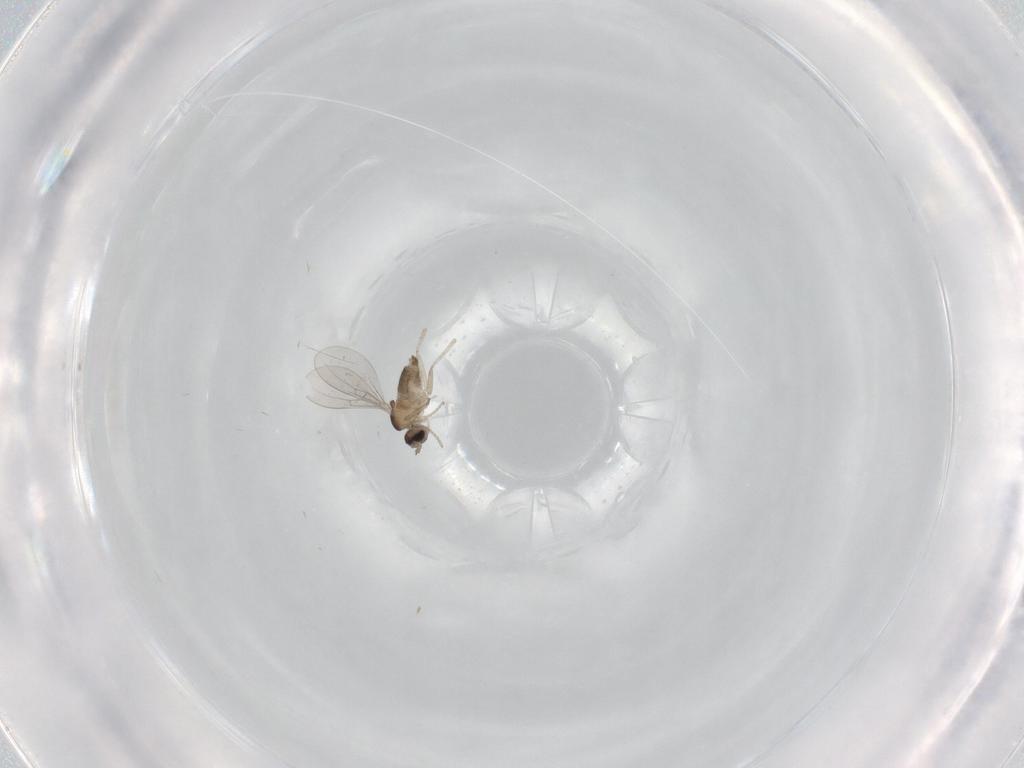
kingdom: Animalia
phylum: Arthropoda
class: Insecta
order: Diptera
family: Cecidomyiidae
